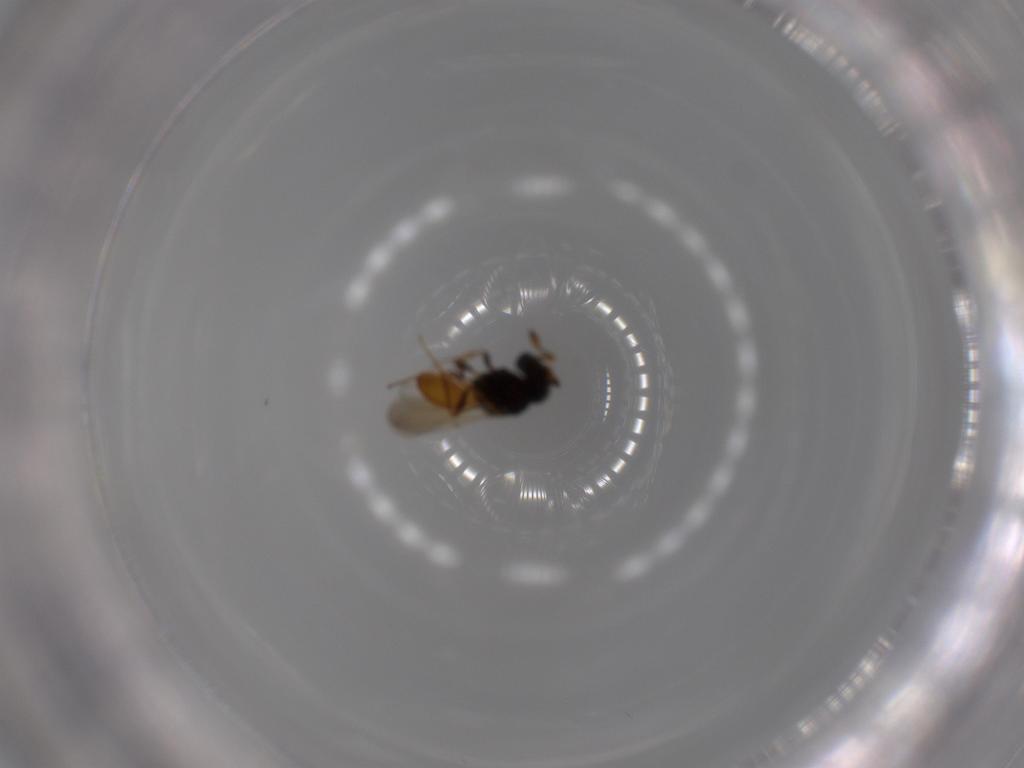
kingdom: Animalia
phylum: Arthropoda
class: Insecta
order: Hymenoptera
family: Scelionidae
